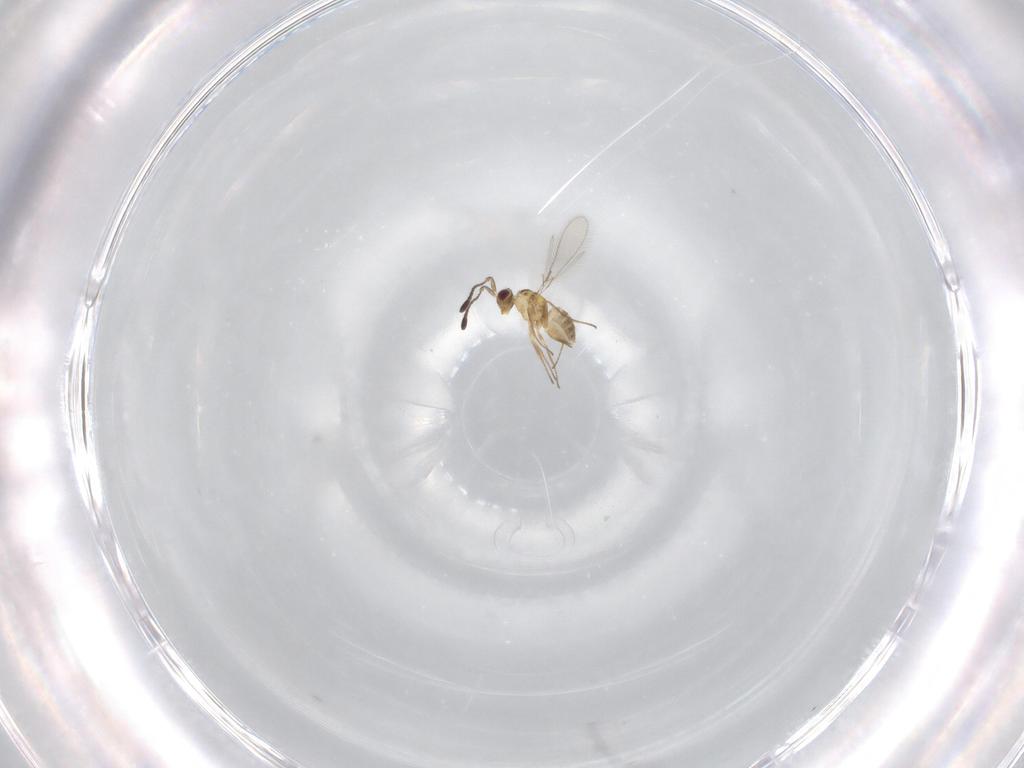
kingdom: Animalia
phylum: Arthropoda
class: Insecta
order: Hymenoptera
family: Mymaridae
